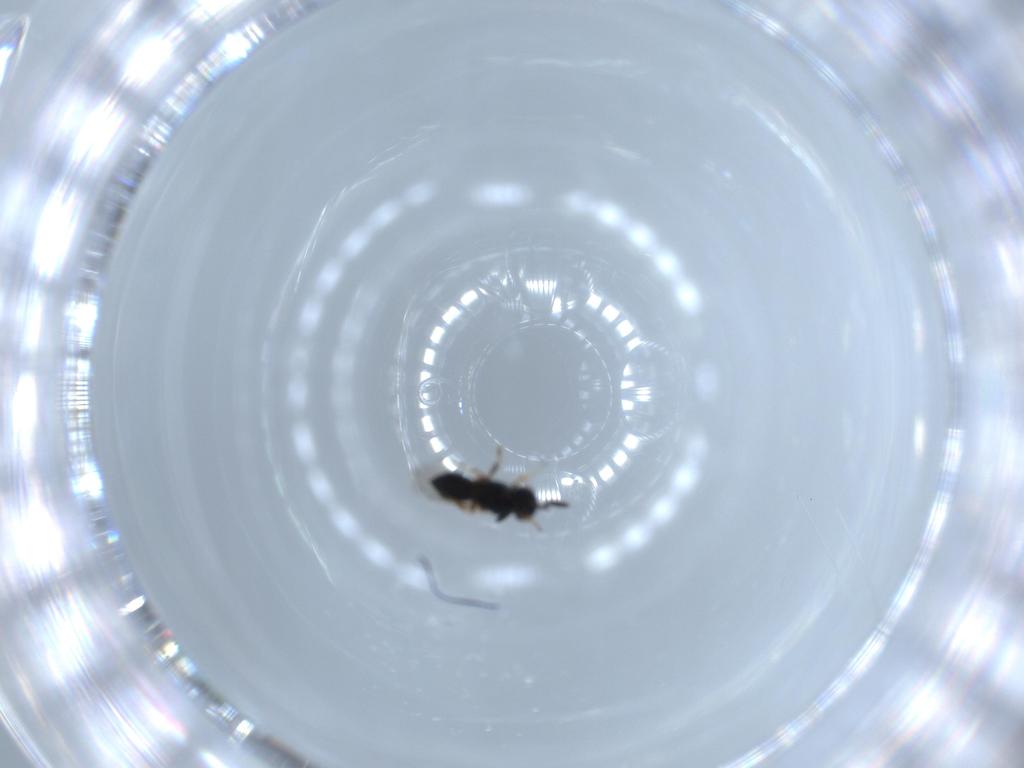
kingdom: Animalia
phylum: Arthropoda
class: Insecta
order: Hymenoptera
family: Scelionidae
